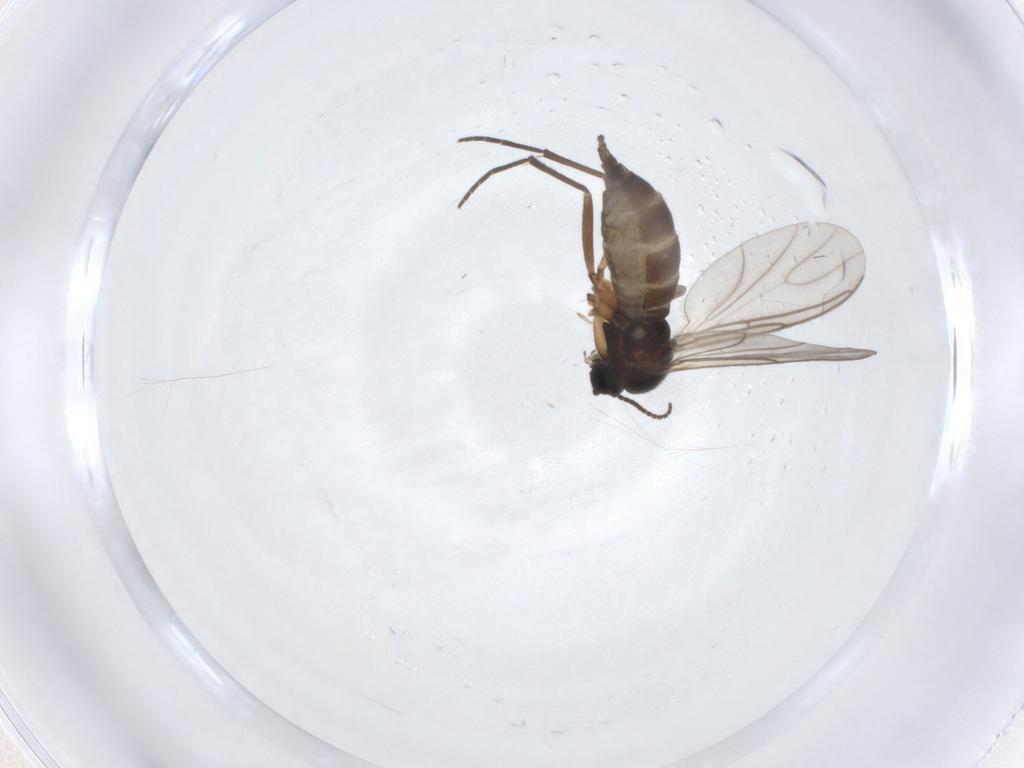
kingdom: Animalia
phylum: Arthropoda
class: Insecta
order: Diptera
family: Sciaridae
